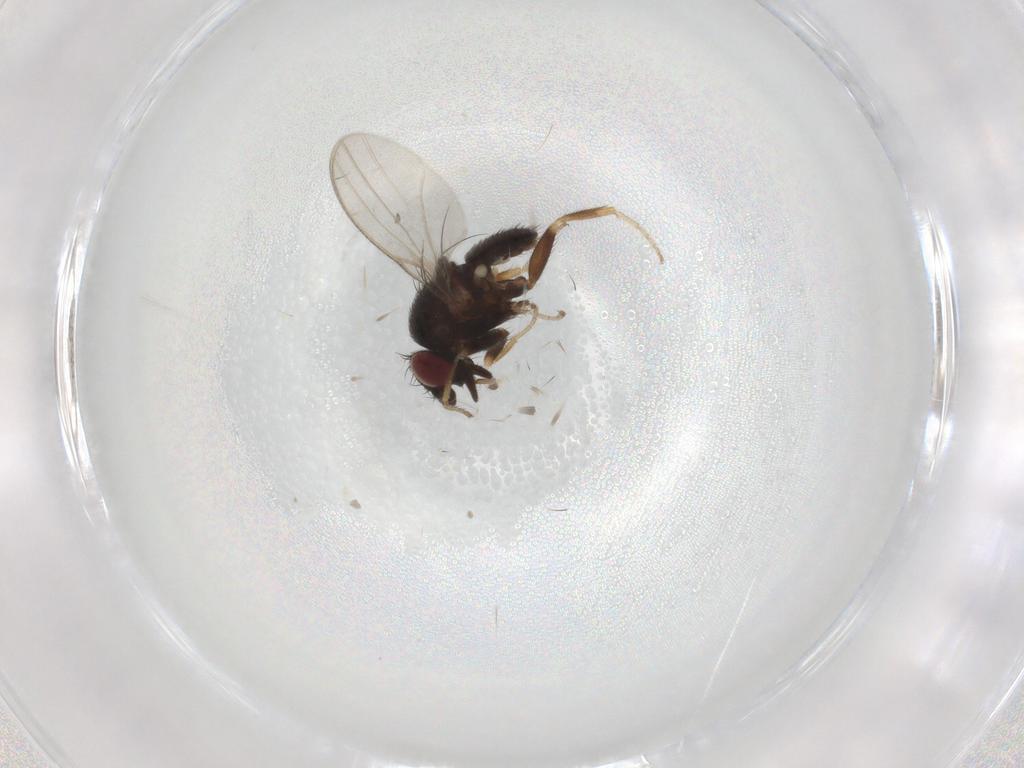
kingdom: Animalia
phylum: Arthropoda
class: Insecta
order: Diptera
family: Milichiidae
